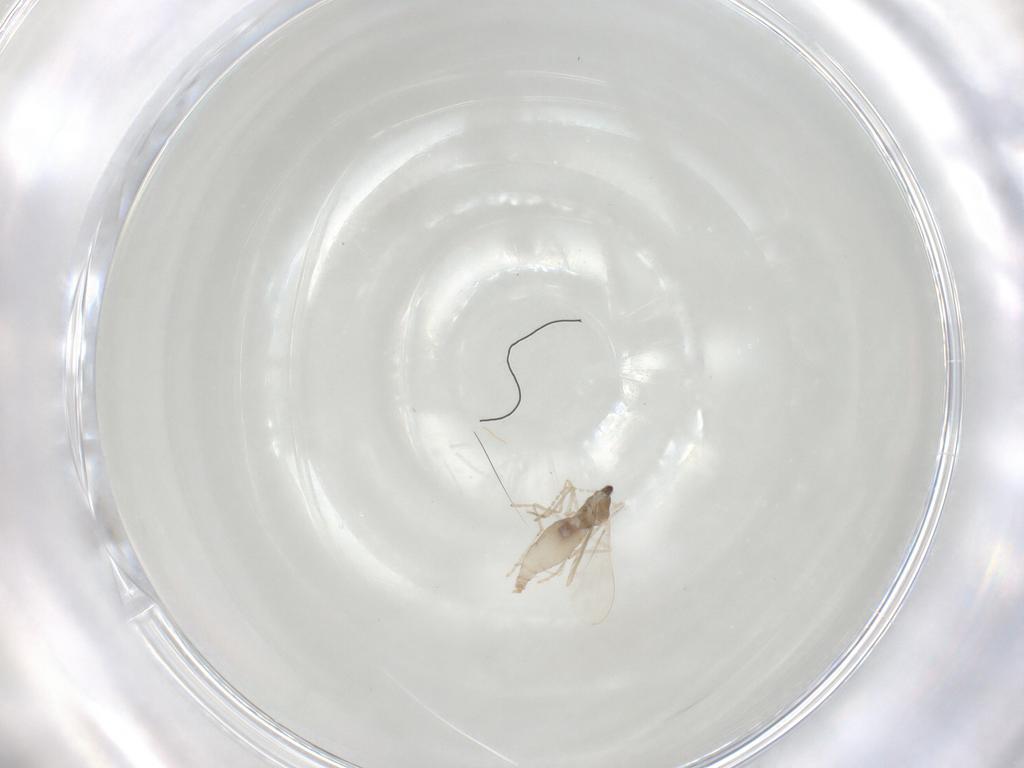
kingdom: Animalia
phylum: Arthropoda
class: Insecta
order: Diptera
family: Cecidomyiidae
